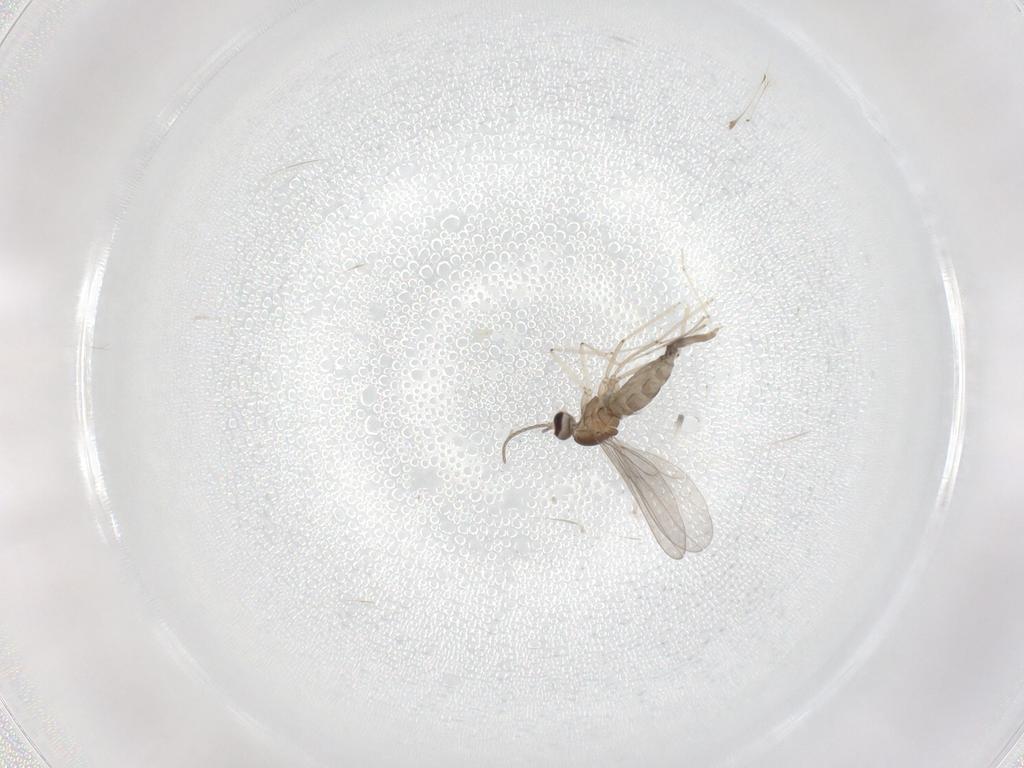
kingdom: Animalia
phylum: Arthropoda
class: Insecta
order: Diptera
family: Cecidomyiidae
